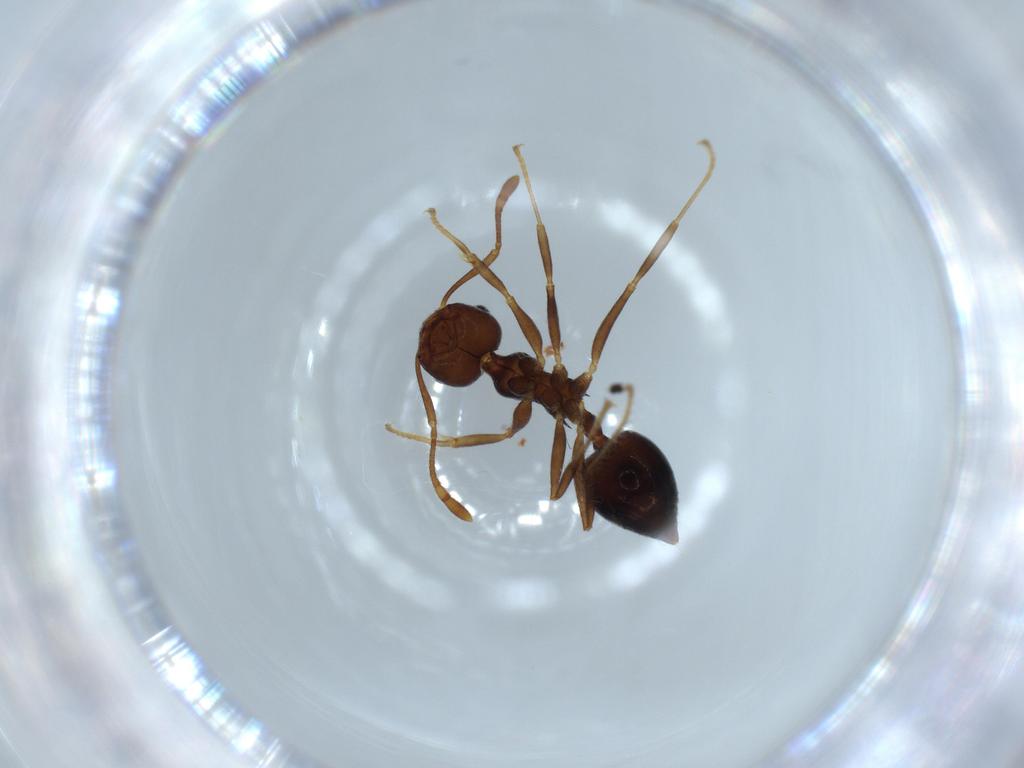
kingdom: Animalia
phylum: Arthropoda
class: Insecta
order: Hymenoptera
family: Formicidae
